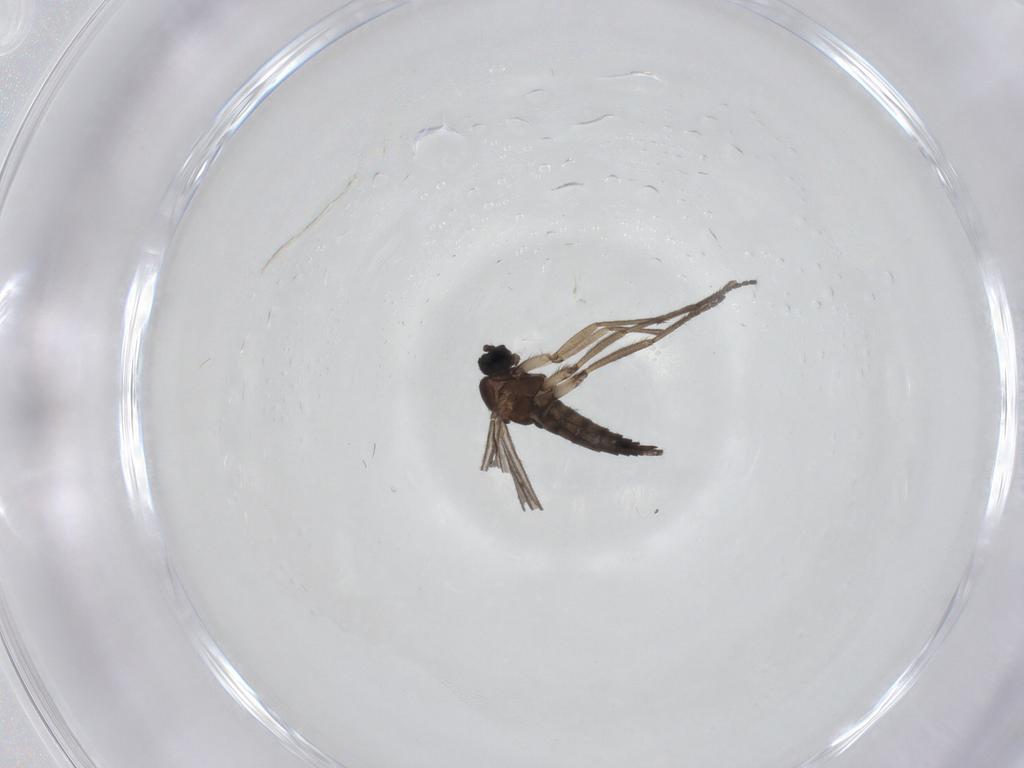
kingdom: Animalia
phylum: Arthropoda
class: Insecta
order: Diptera
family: Sciaridae
